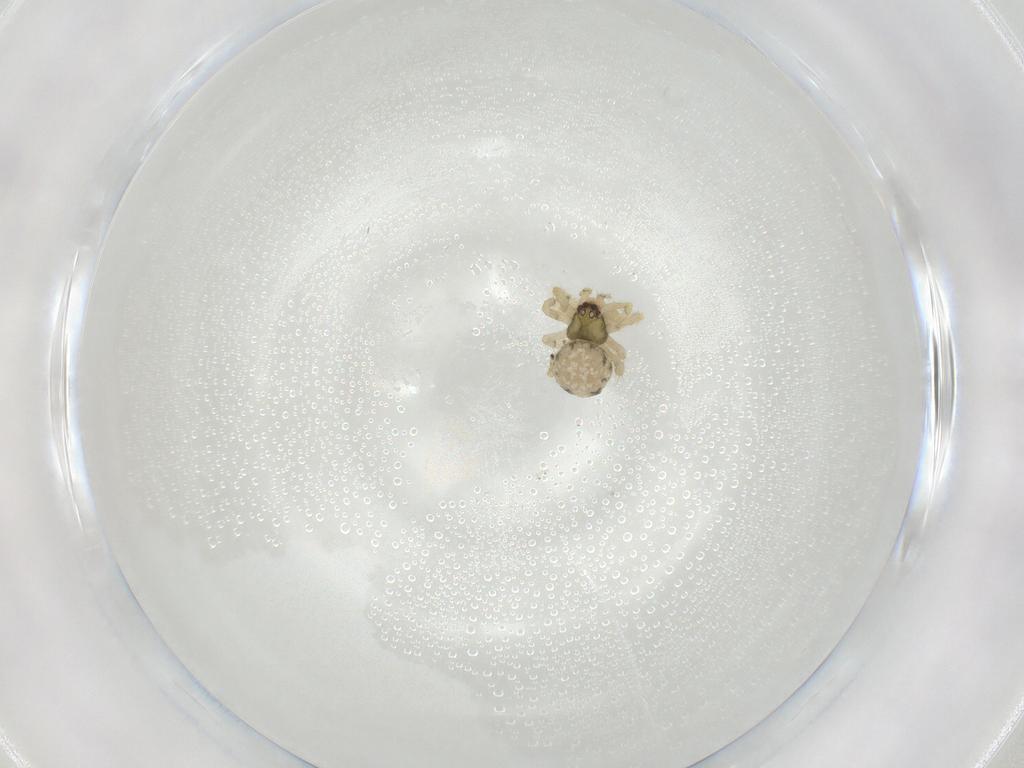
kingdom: Animalia
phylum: Arthropoda
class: Arachnida
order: Araneae
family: Theridiidae
